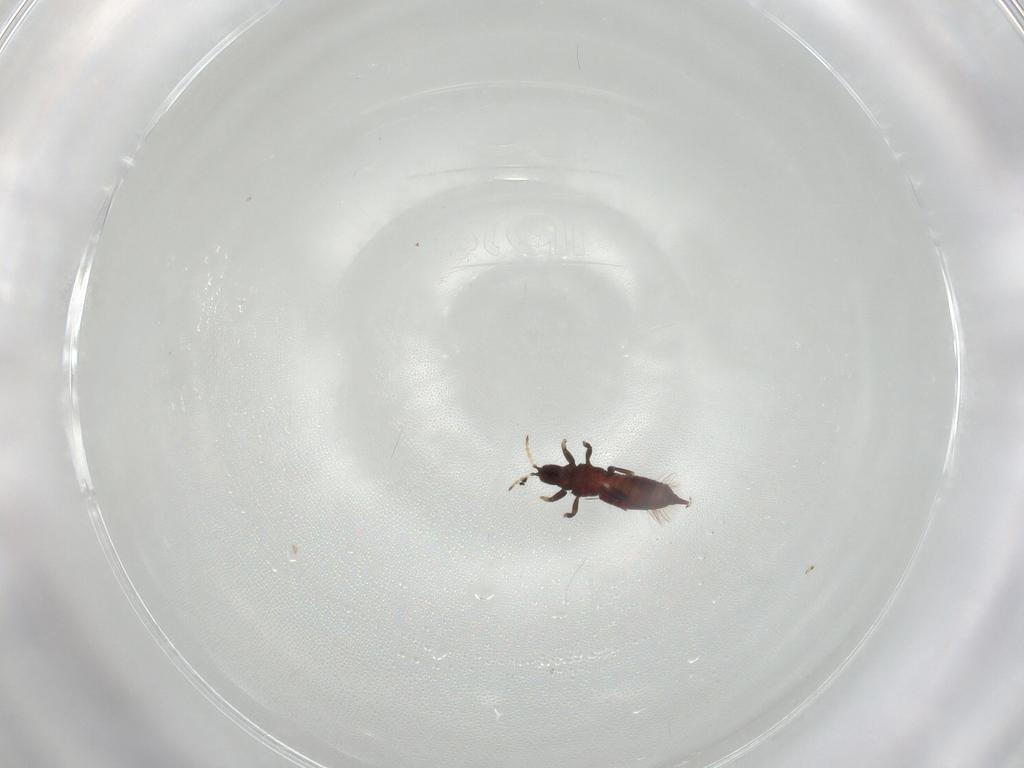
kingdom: Animalia
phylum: Arthropoda
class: Insecta
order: Thysanoptera
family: Phlaeothripidae
